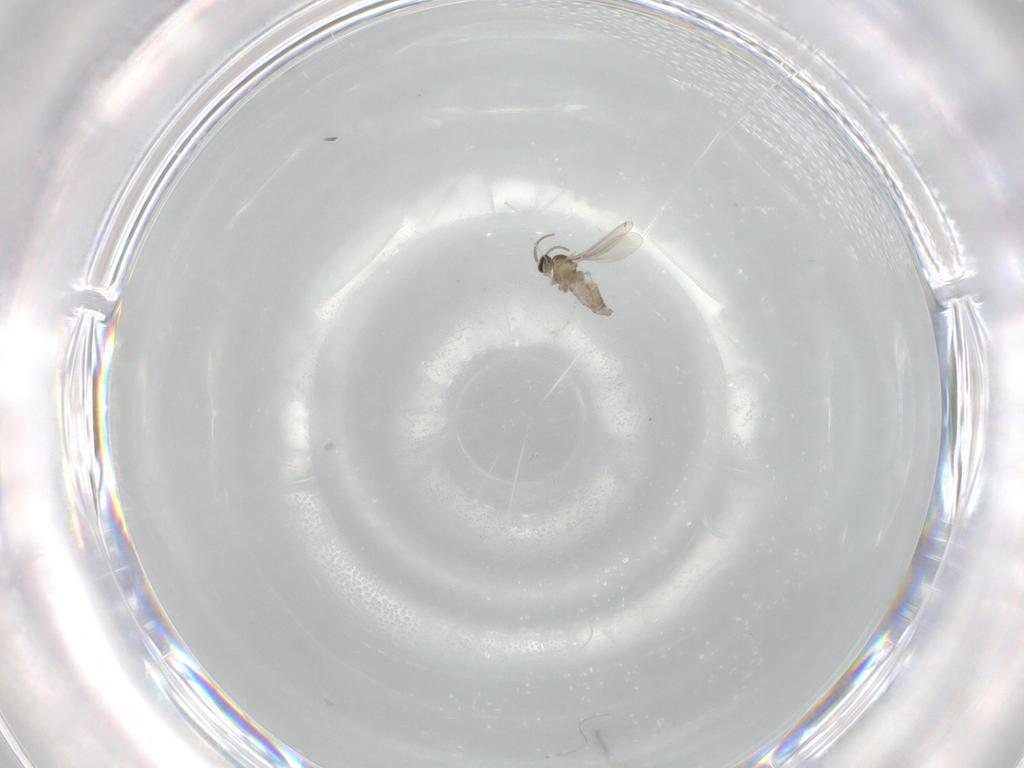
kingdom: Animalia
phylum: Arthropoda
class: Insecta
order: Diptera
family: Cecidomyiidae
